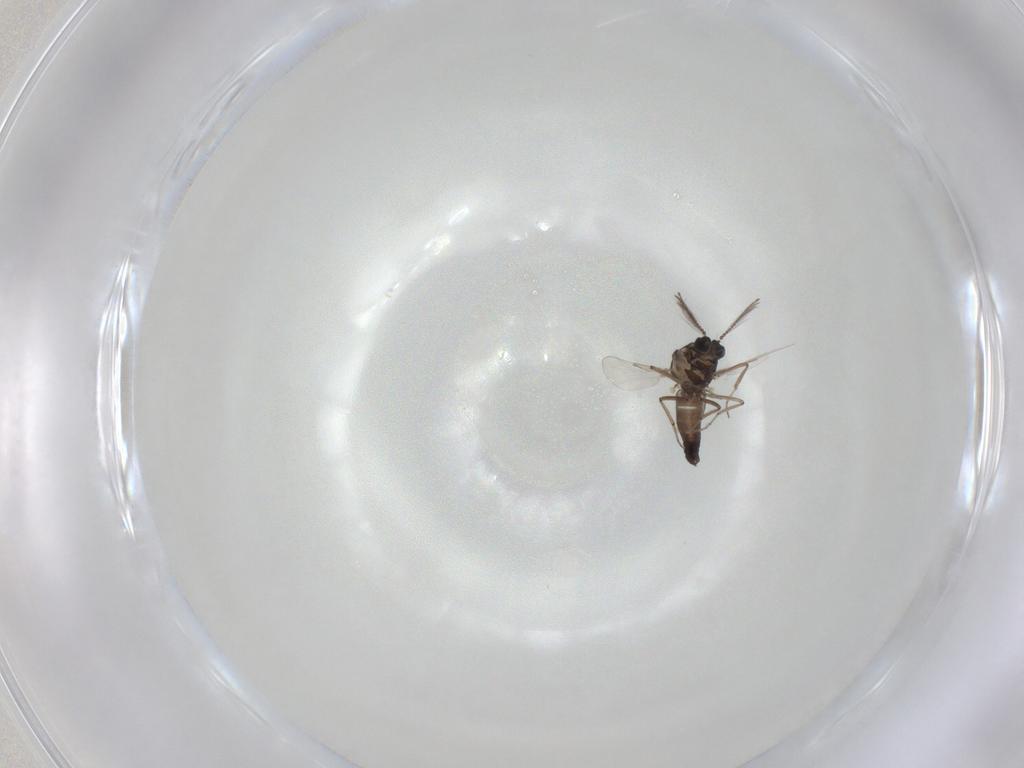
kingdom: Animalia
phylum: Arthropoda
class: Insecta
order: Diptera
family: Ceratopogonidae
